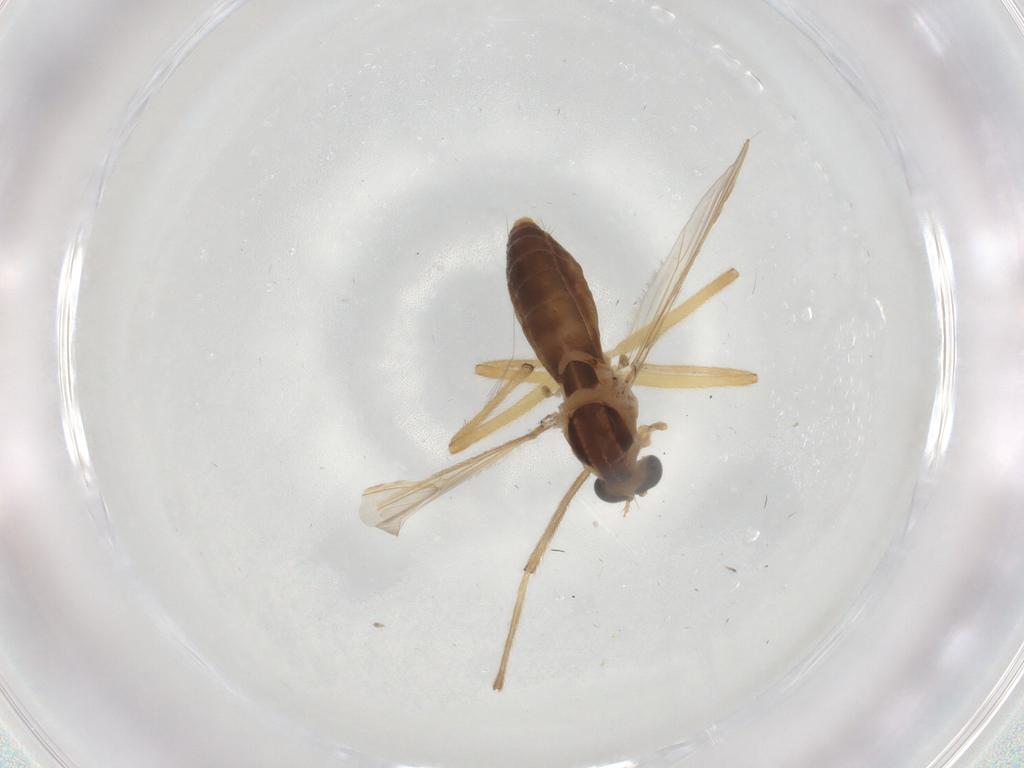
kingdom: Animalia
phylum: Arthropoda
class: Insecta
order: Diptera
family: Chironomidae
